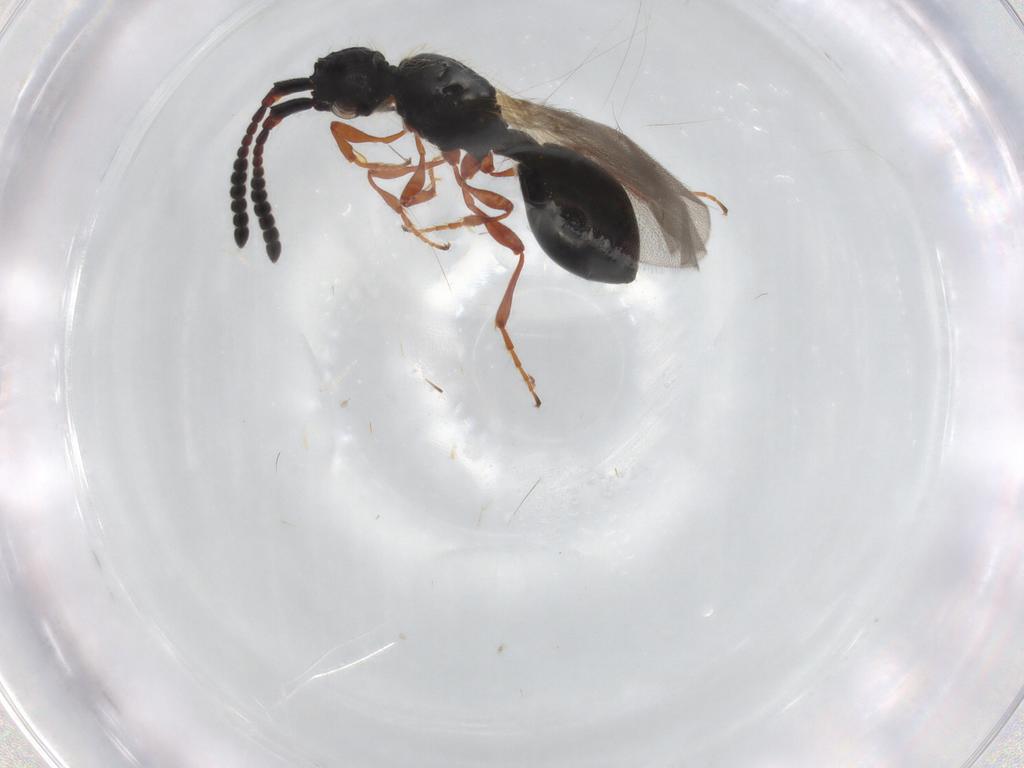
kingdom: Animalia
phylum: Arthropoda
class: Insecta
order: Hymenoptera
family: Diapriidae
